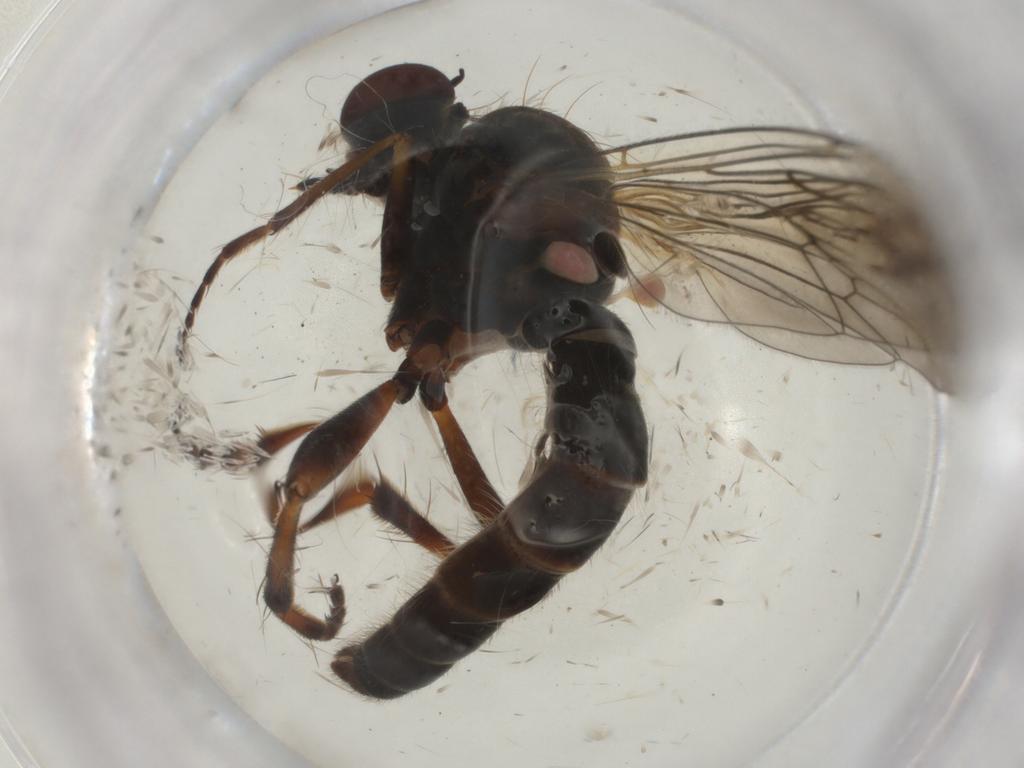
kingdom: Animalia
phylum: Arthropoda
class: Insecta
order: Diptera
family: Asilidae
